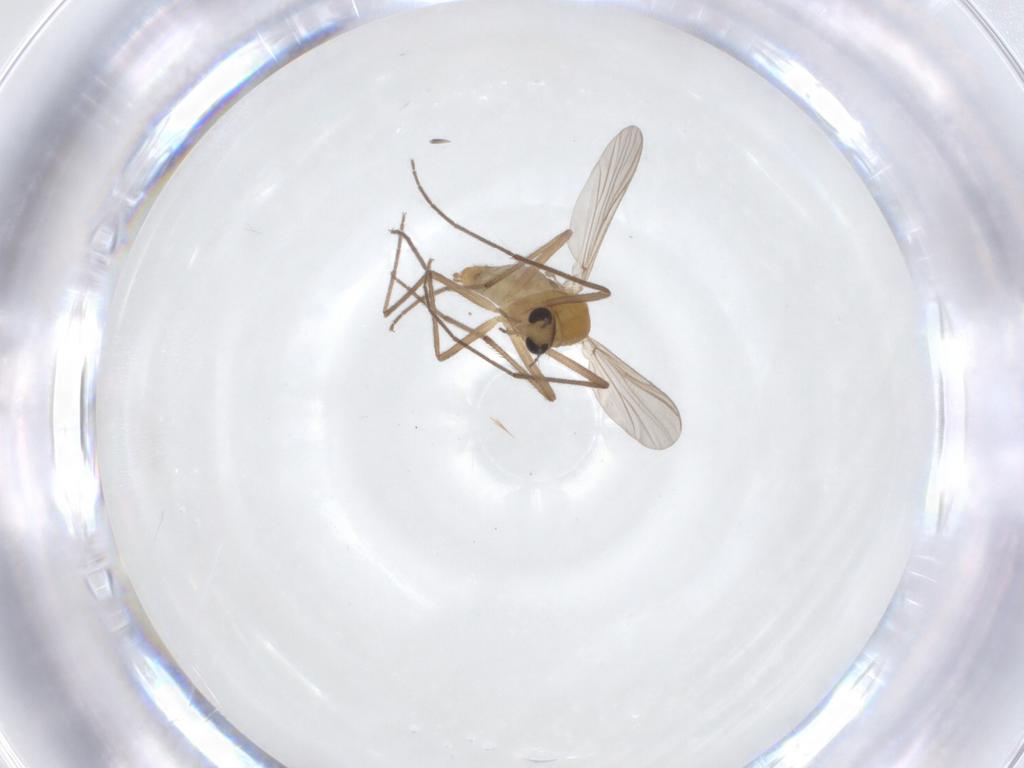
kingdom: Animalia
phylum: Arthropoda
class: Insecta
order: Diptera
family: Chironomidae
